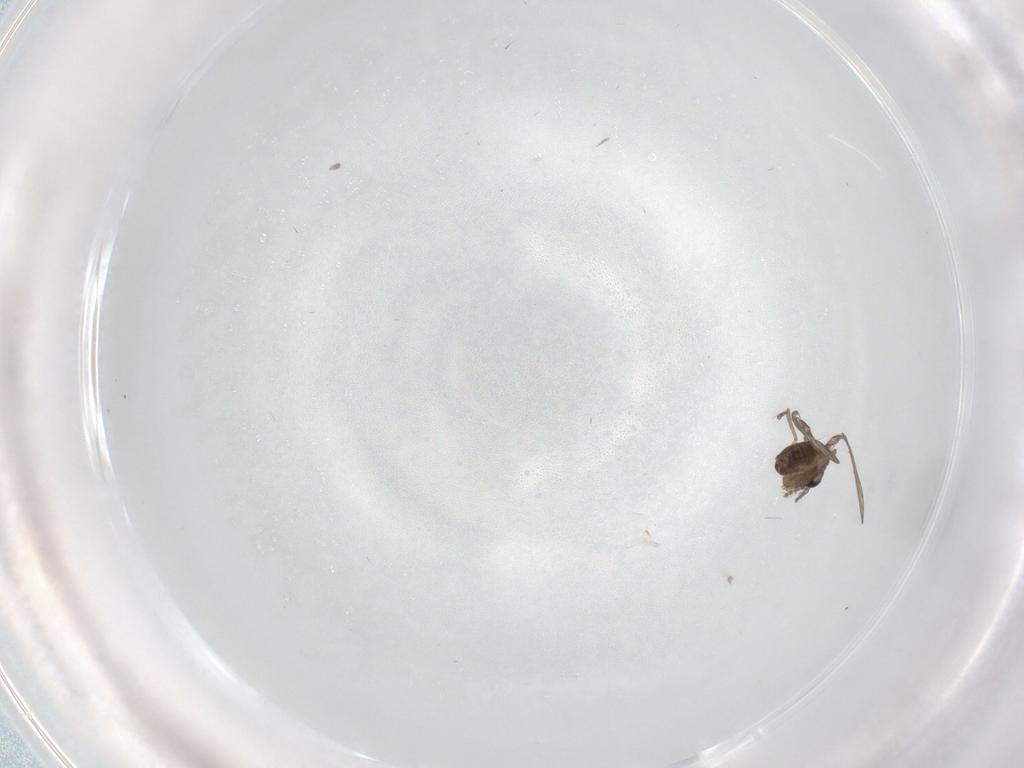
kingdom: Animalia
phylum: Arthropoda
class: Insecta
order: Diptera
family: Psychodidae
